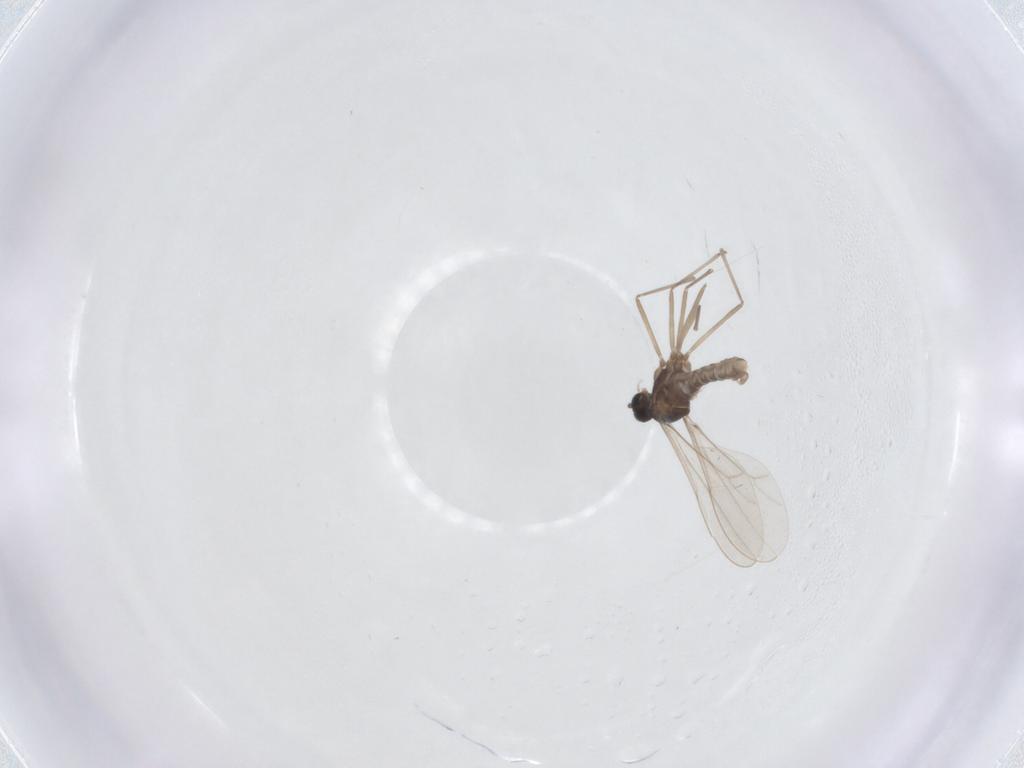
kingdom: Animalia
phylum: Arthropoda
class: Insecta
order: Diptera
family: Cecidomyiidae
